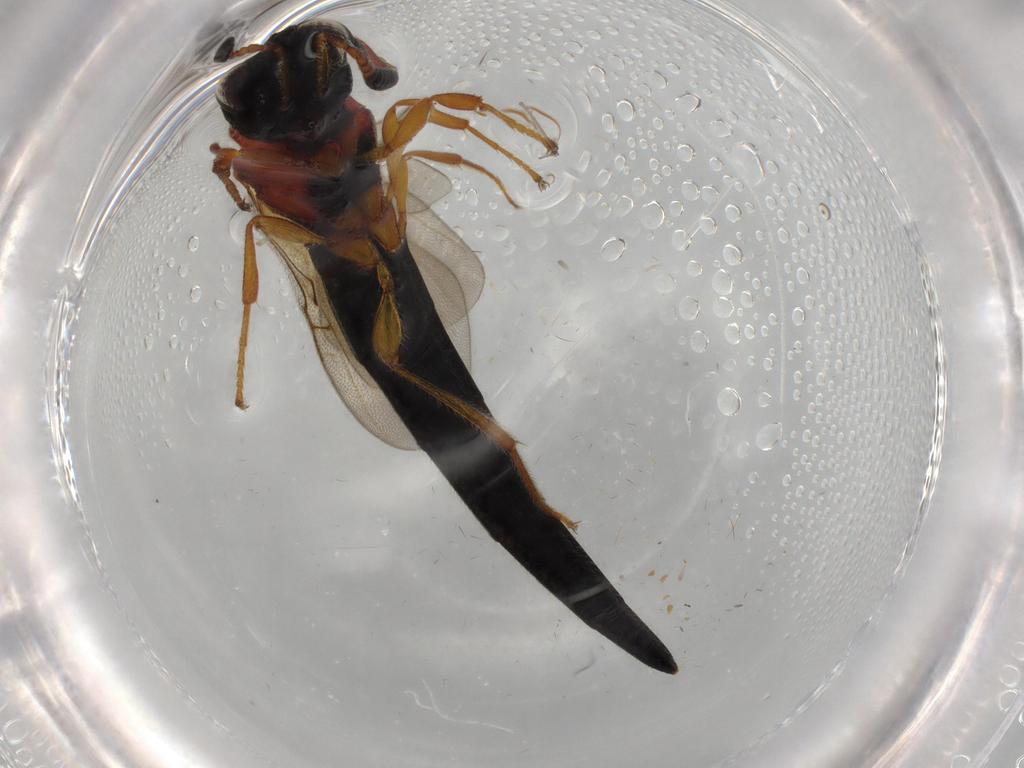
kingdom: Animalia
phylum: Arthropoda
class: Insecta
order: Hymenoptera
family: Scelionidae
